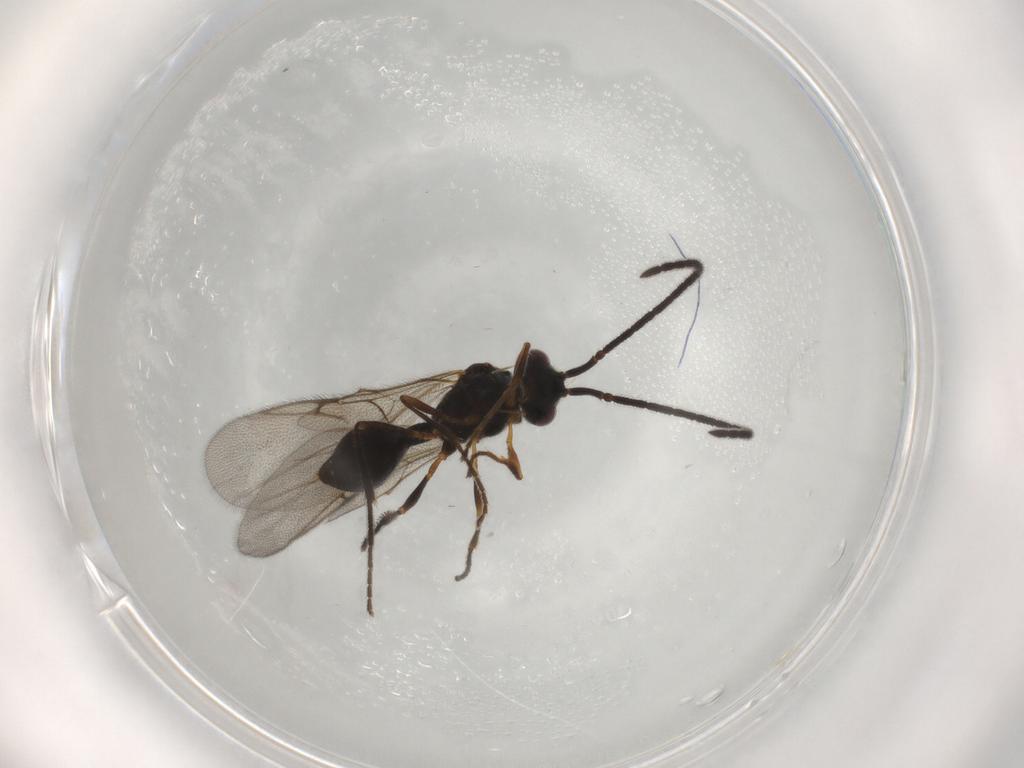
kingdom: Animalia
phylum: Arthropoda
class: Insecta
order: Hymenoptera
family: Diapriidae
